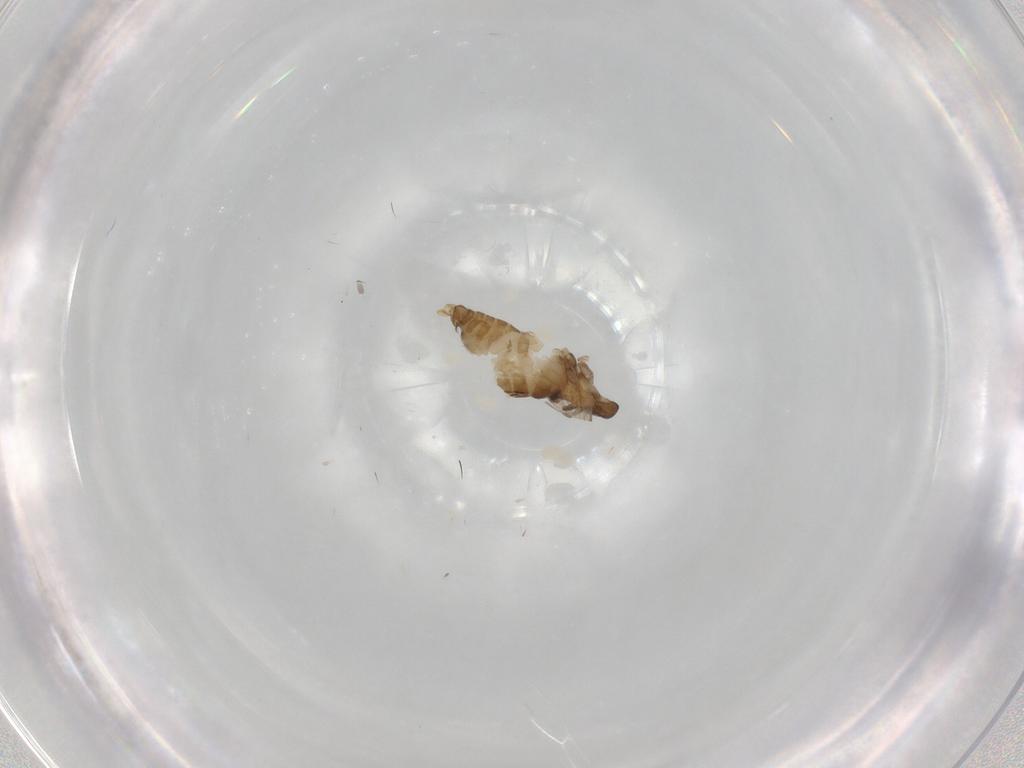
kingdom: Animalia
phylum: Arthropoda
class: Insecta
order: Diptera
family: Psychodidae
